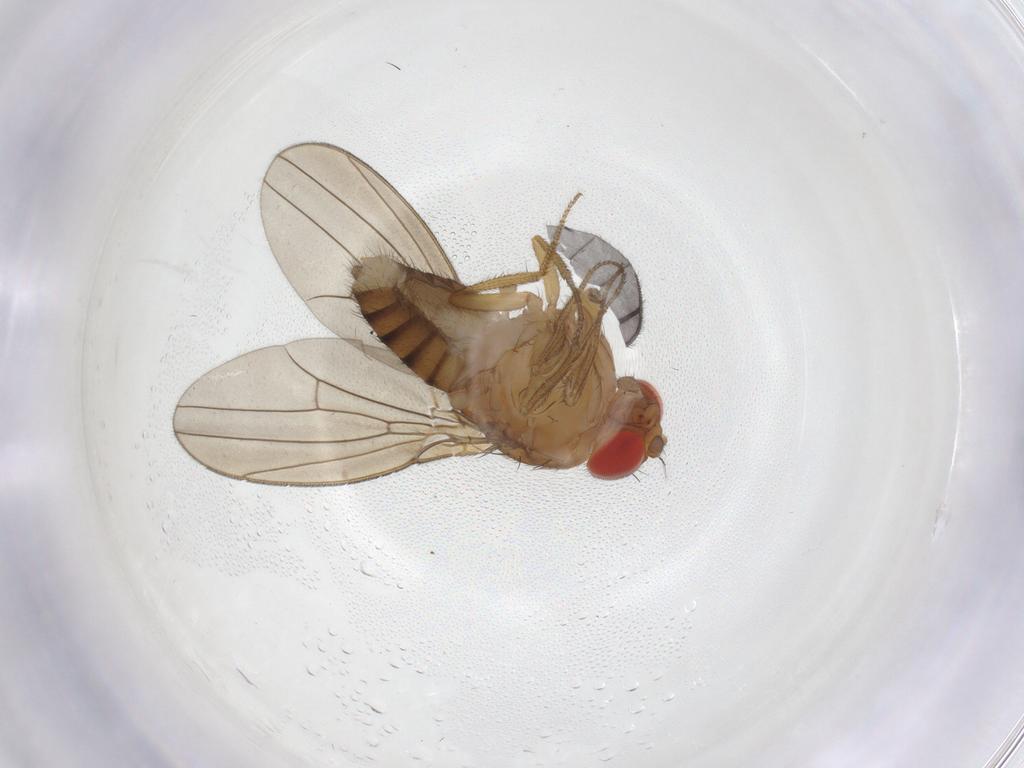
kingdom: Animalia
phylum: Arthropoda
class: Insecta
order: Diptera
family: Drosophilidae
